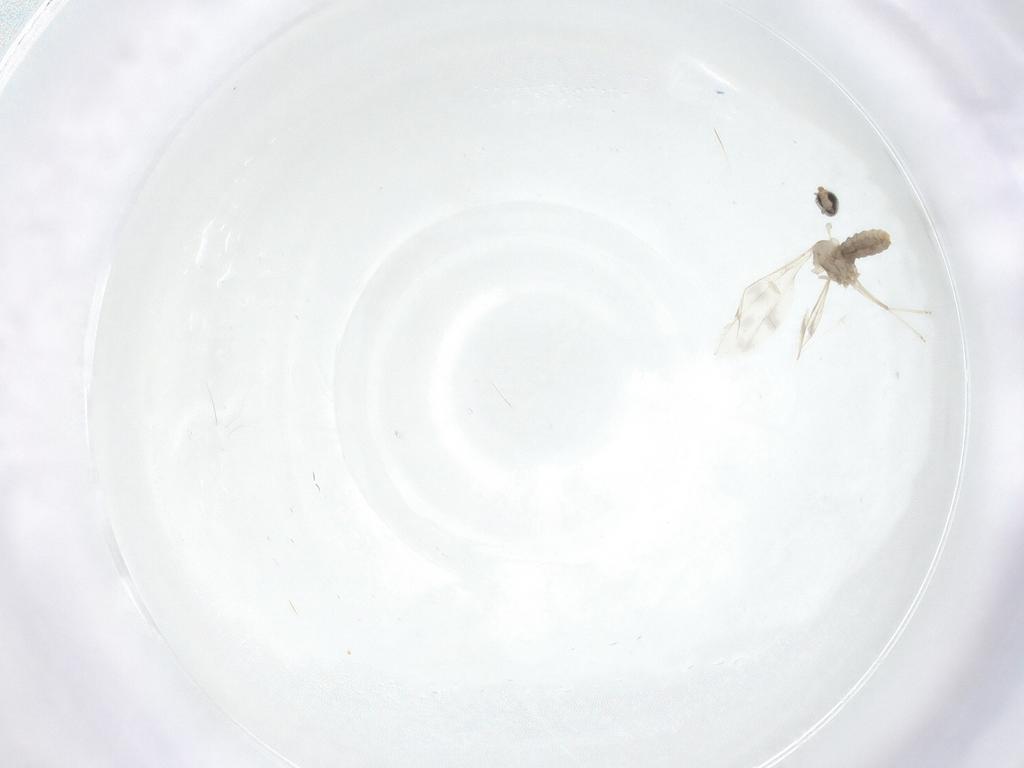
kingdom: Animalia
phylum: Arthropoda
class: Insecta
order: Diptera
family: Cecidomyiidae
